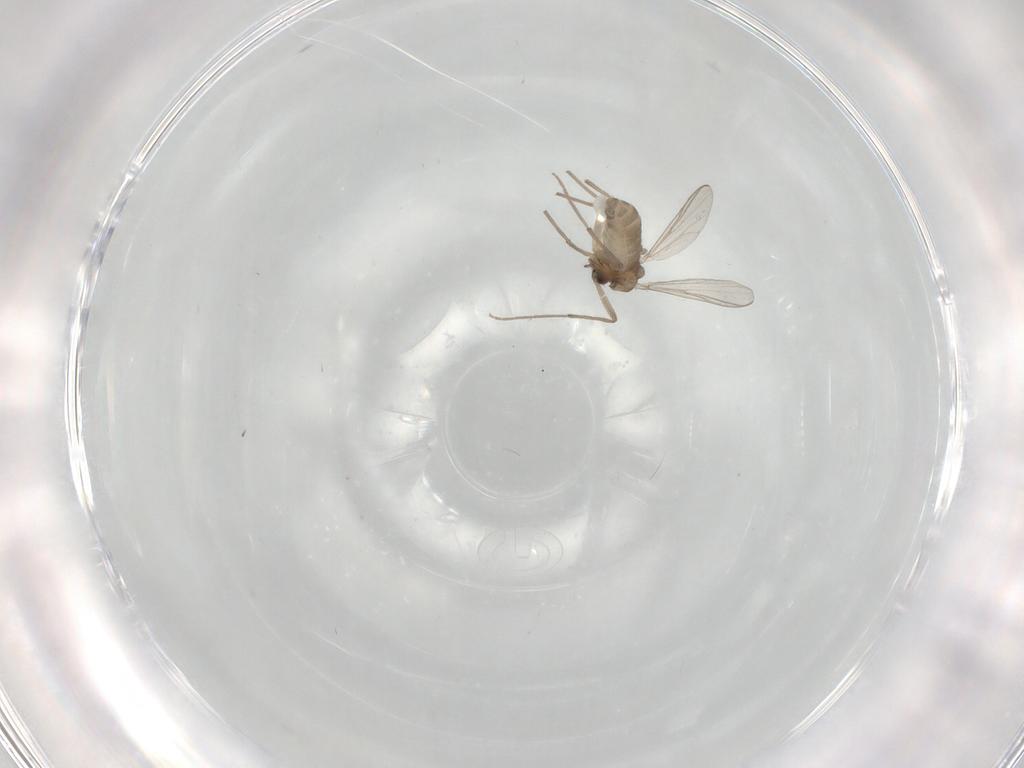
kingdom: Animalia
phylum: Arthropoda
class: Insecta
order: Diptera
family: Chironomidae
